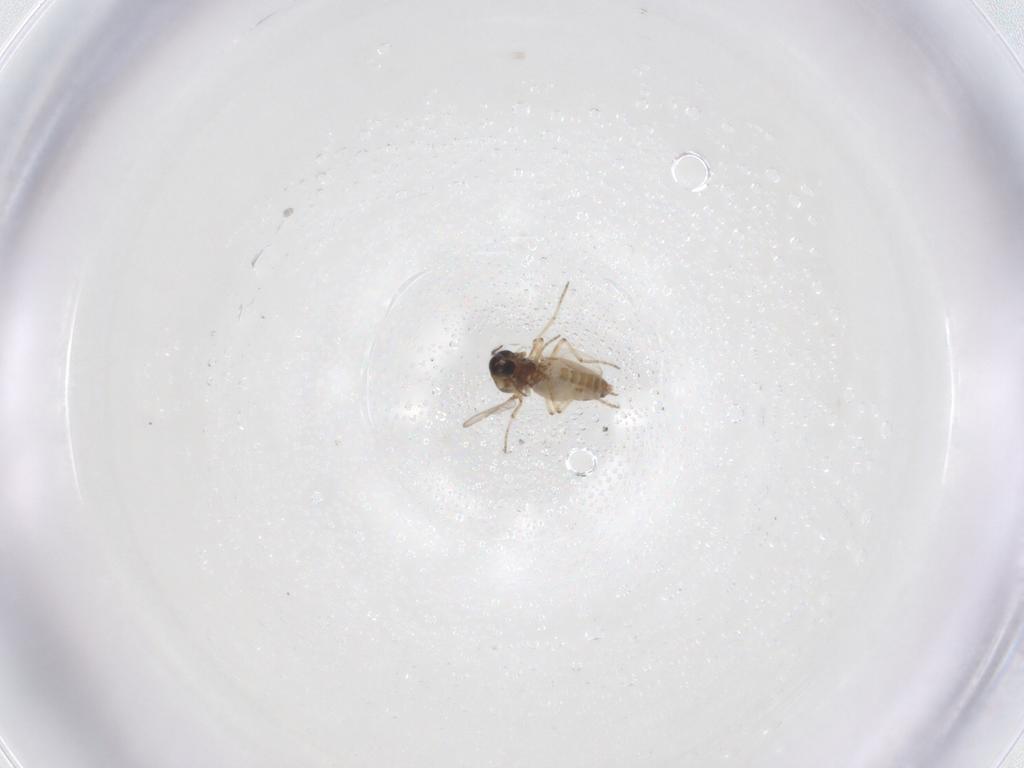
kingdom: Animalia
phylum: Arthropoda
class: Insecta
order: Diptera
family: Ceratopogonidae
